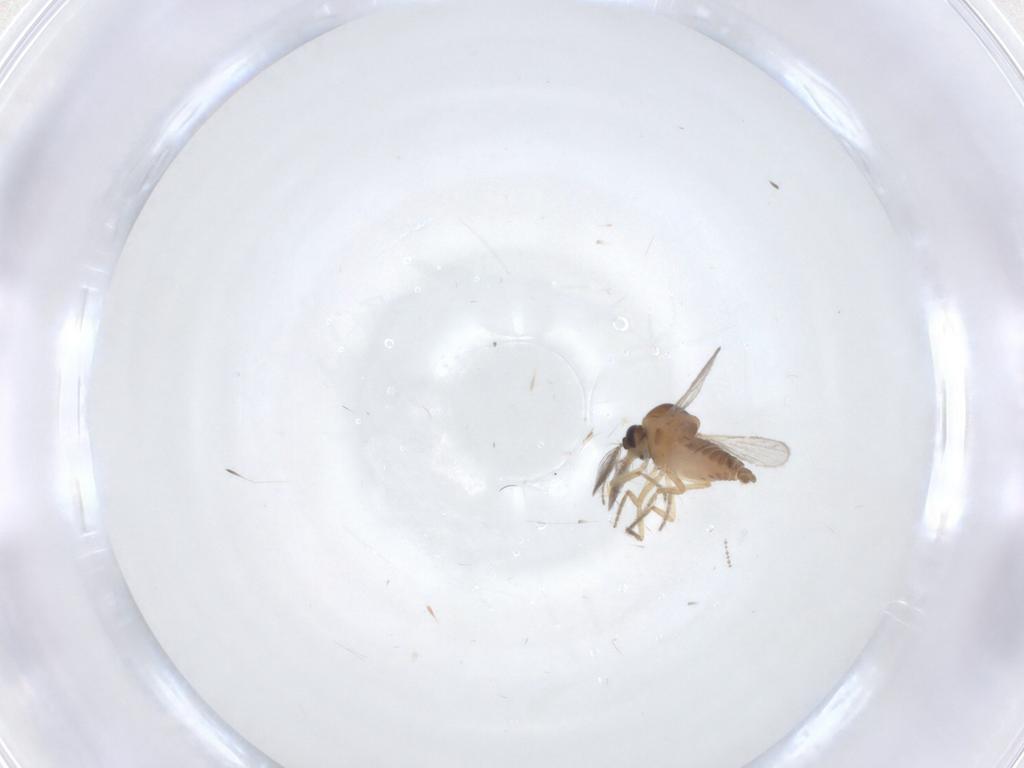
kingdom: Animalia
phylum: Arthropoda
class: Insecta
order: Diptera
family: Ceratopogonidae
